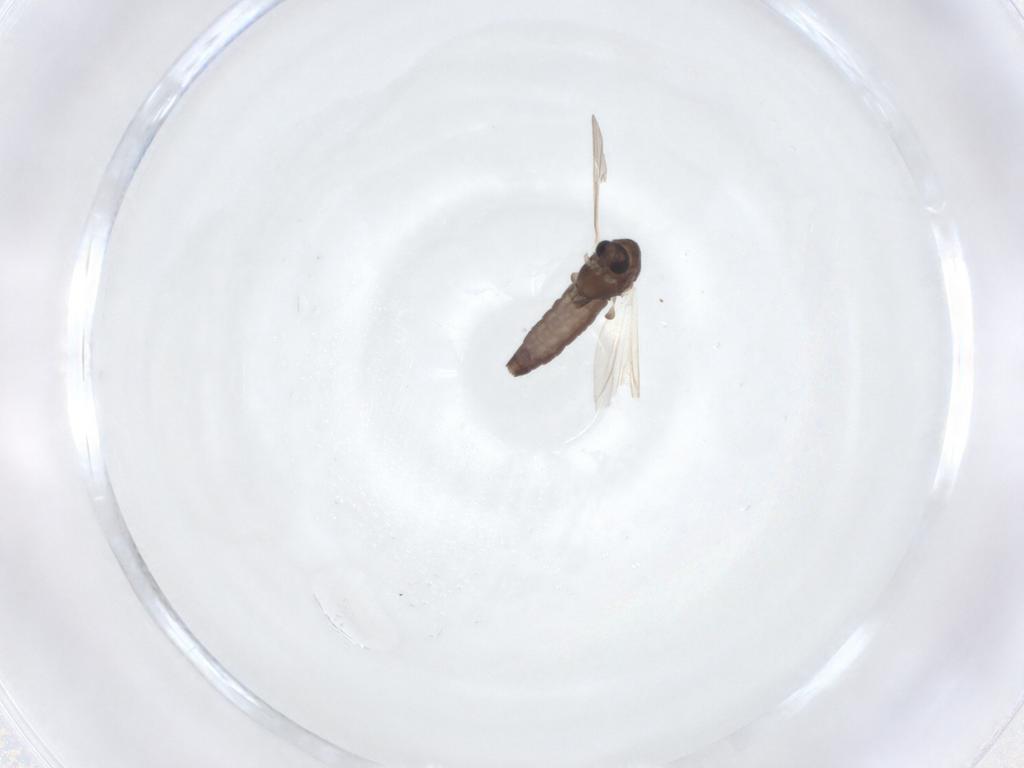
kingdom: Animalia
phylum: Arthropoda
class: Insecta
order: Diptera
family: Chironomidae
